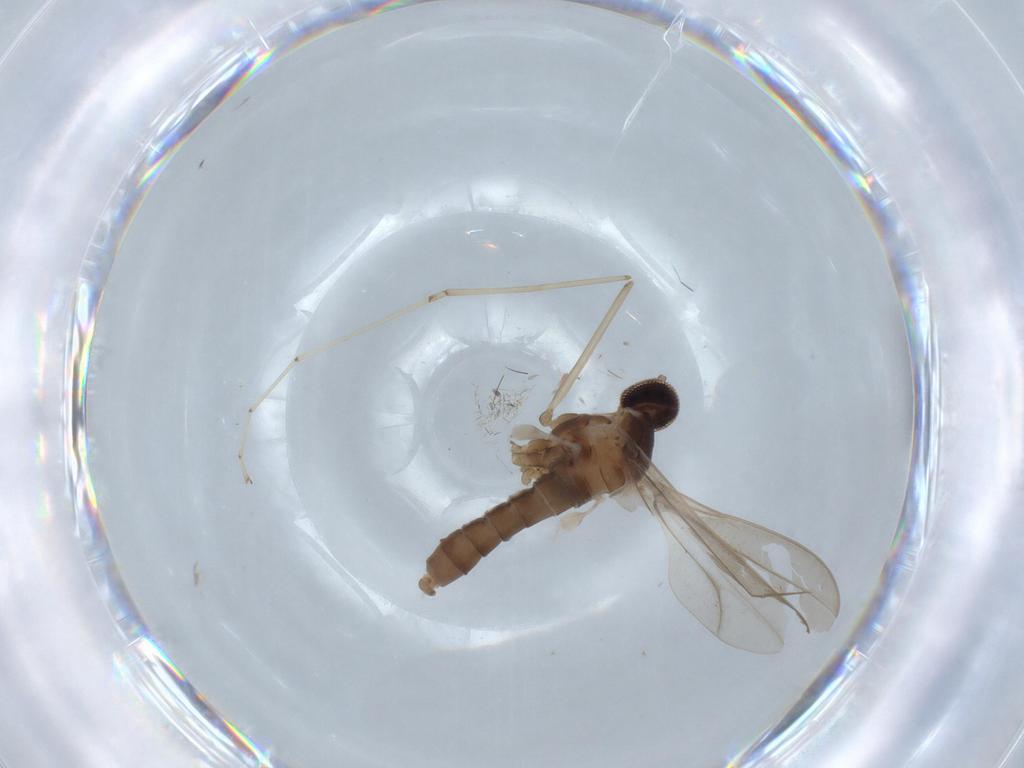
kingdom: Animalia
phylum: Arthropoda
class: Insecta
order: Diptera
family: Cecidomyiidae
